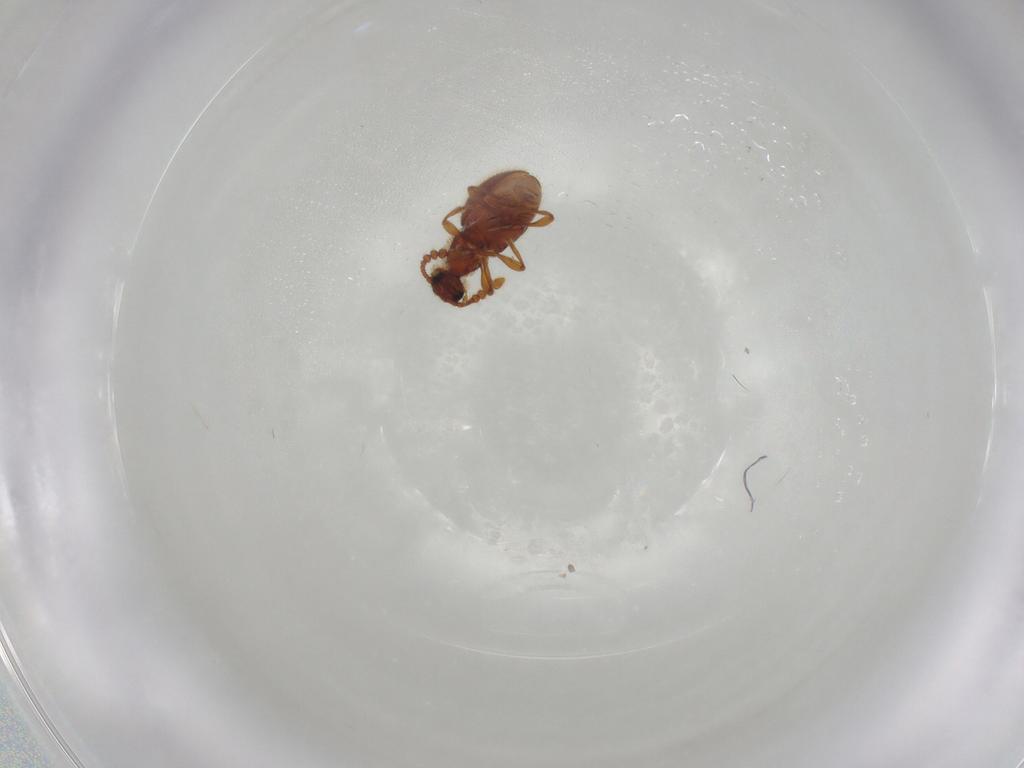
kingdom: Animalia
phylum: Arthropoda
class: Insecta
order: Coleoptera
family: Staphylinidae
